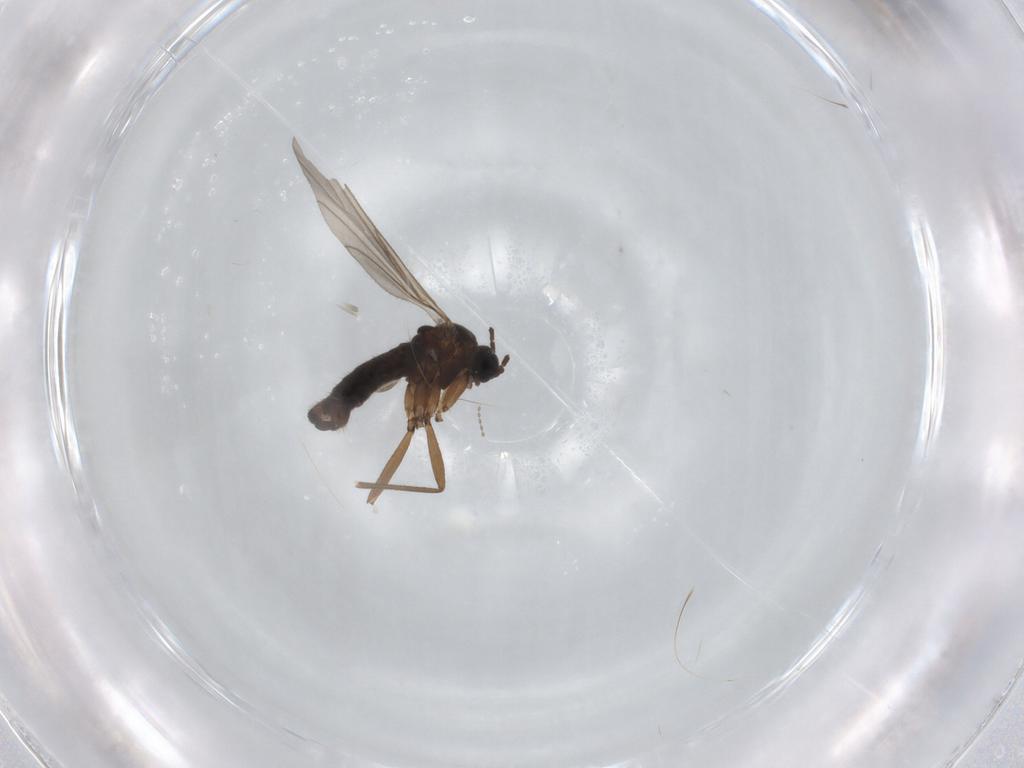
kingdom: Animalia
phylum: Arthropoda
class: Insecta
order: Diptera
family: Sciaridae
